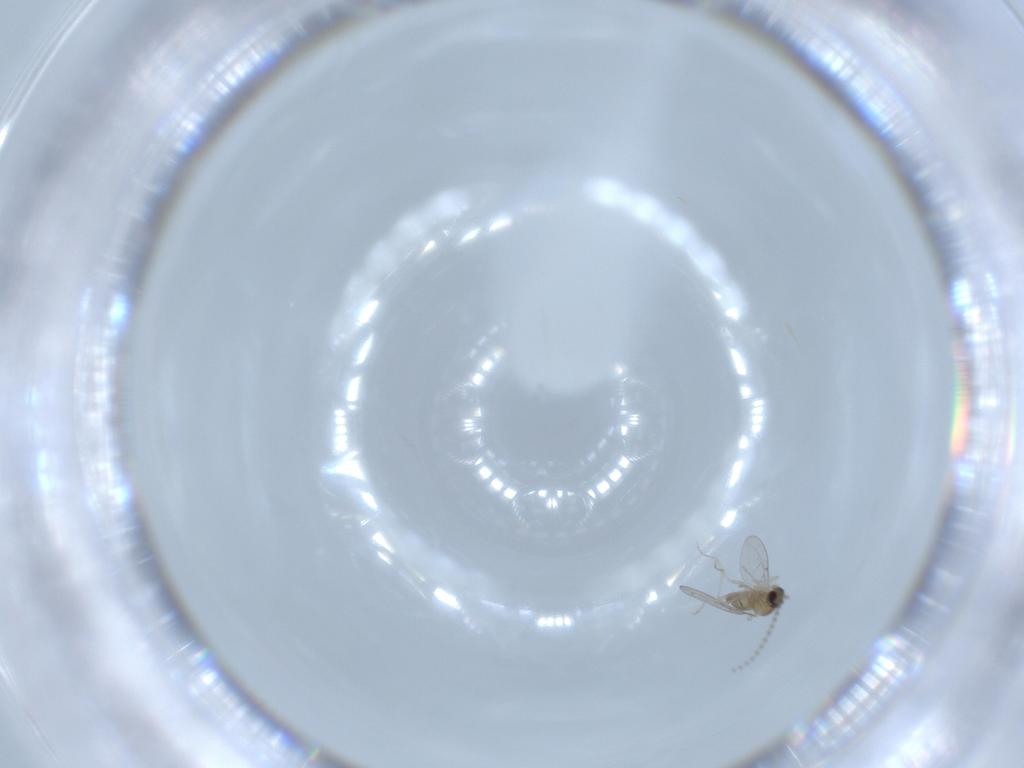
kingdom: Animalia
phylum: Arthropoda
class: Insecta
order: Diptera
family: Cecidomyiidae
